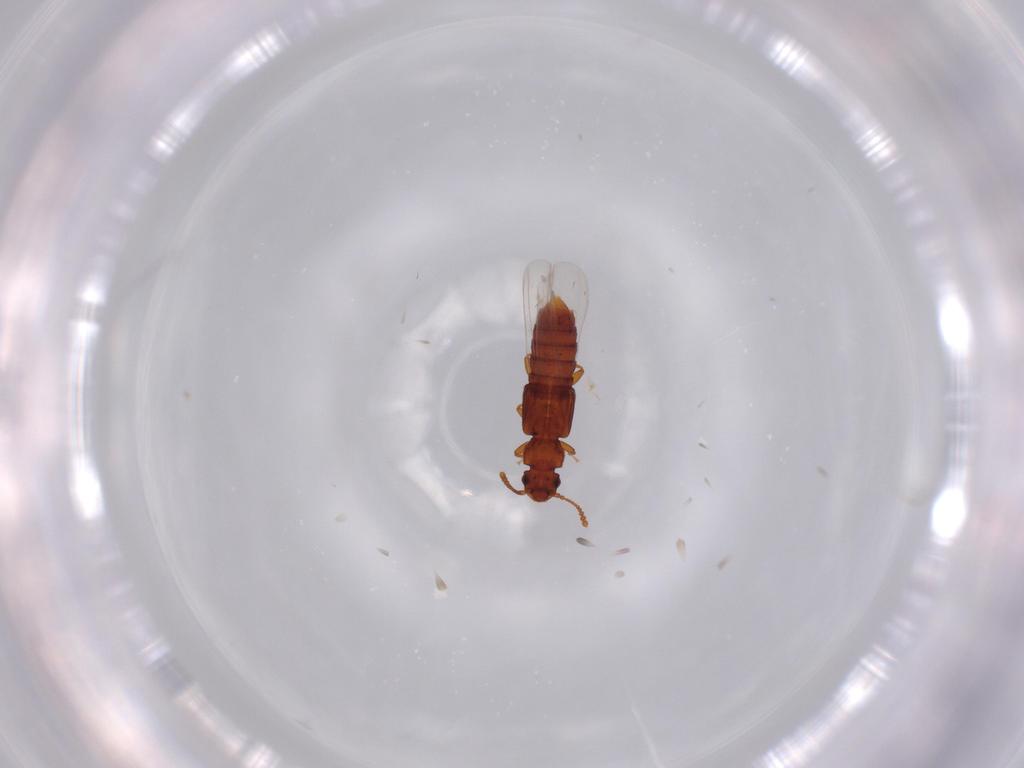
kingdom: Animalia
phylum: Arthropoda
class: Insecta
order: Coleoptera
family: Staphylinidae
